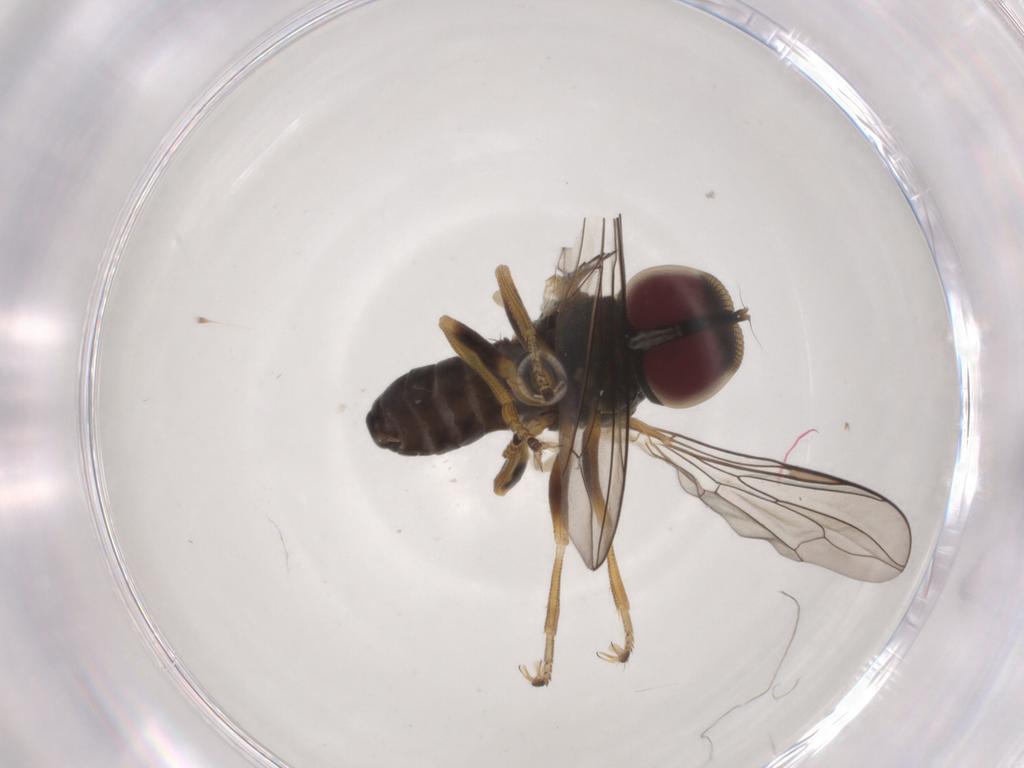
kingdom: Animalia
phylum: Arthropoda
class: Insecta
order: Diptera
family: Pipunculidae
